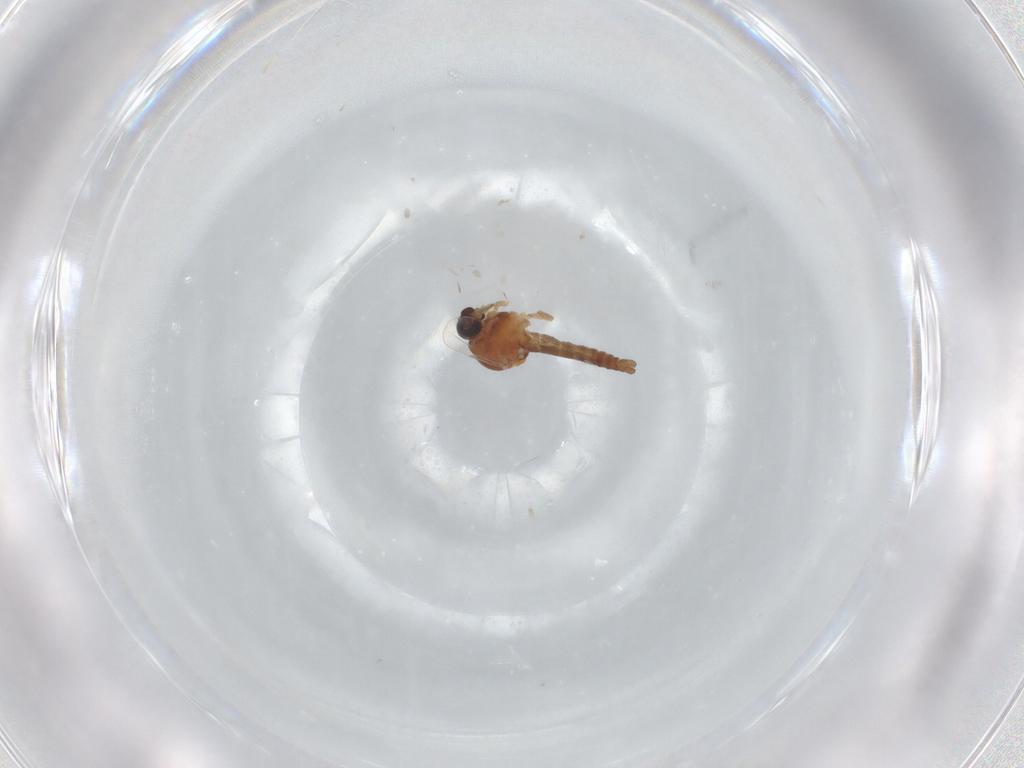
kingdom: Animalia
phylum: Arthropoda
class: Insecta
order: Diptera
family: Ceratopogonidae
